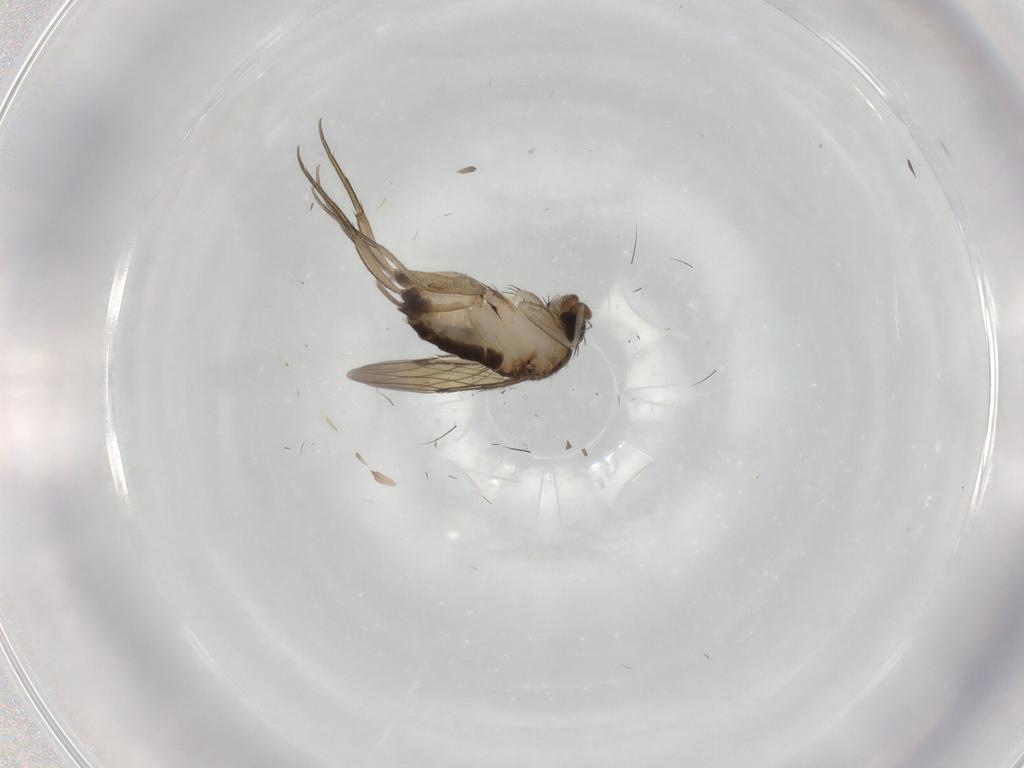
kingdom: Animalia
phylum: Arthropoda
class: Insecta
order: Diptera
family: Phoridae
